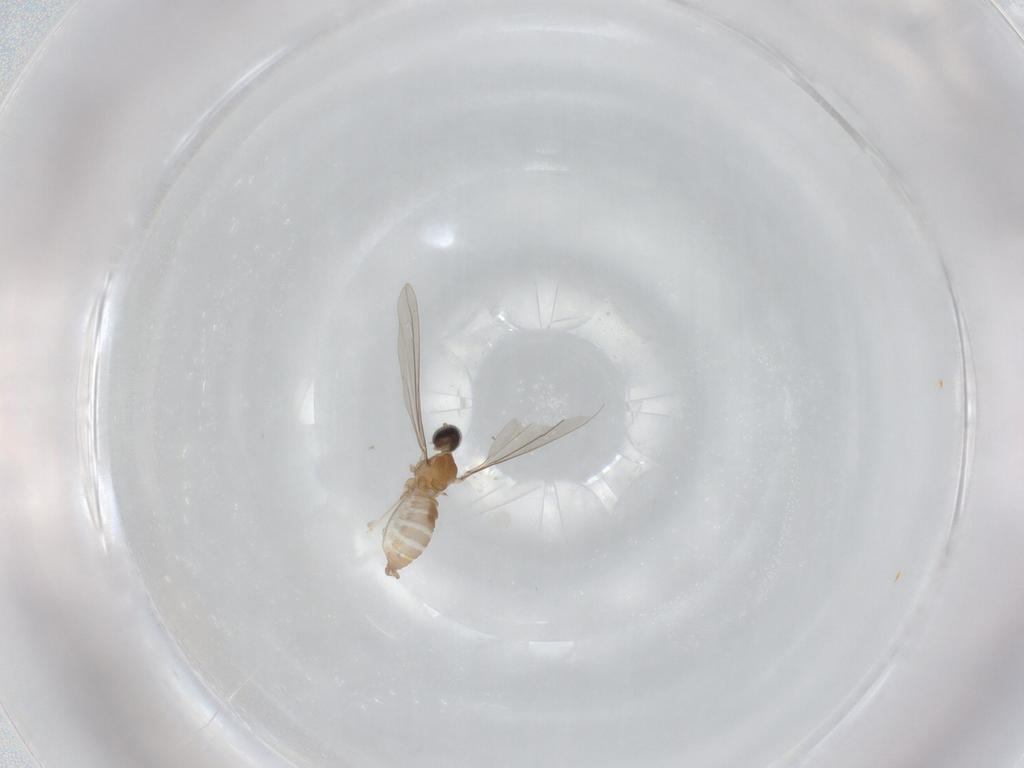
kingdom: Animalia
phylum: Arthropoda
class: Insecta
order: Diptera
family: Cecidomyiidae
